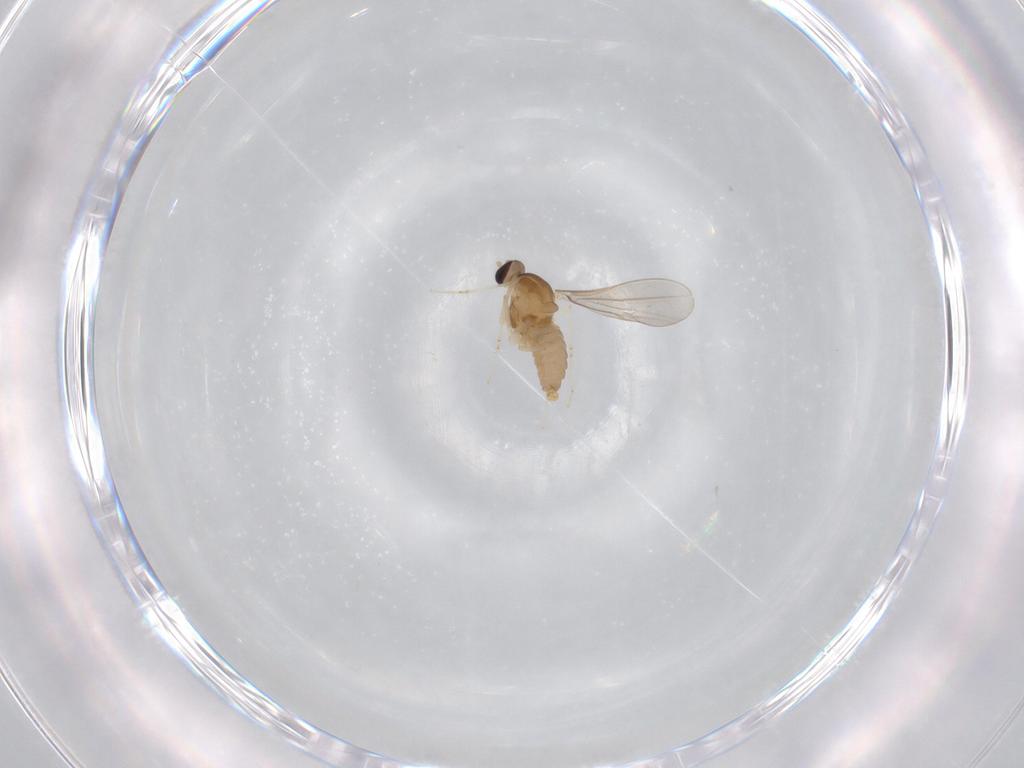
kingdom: Animalia
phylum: Arthropoda
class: Insecta
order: Diptera
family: Cecidomyiidae
